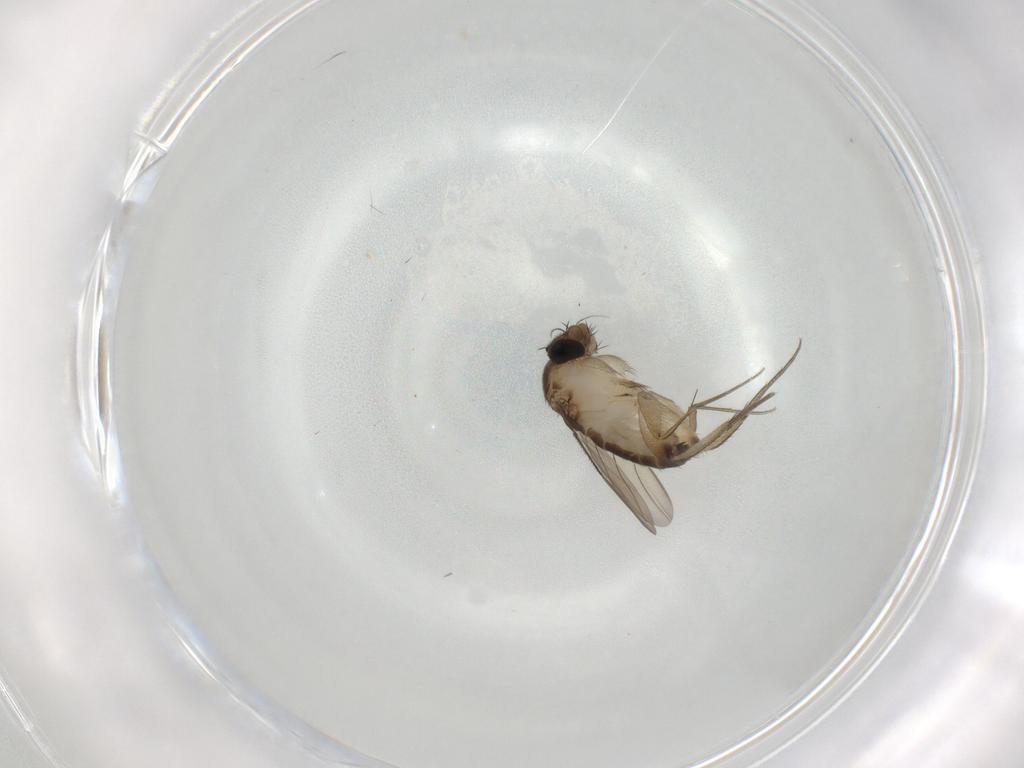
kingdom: Animalia
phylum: Arthropoda
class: Insecta
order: Diptera
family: Phoridae
